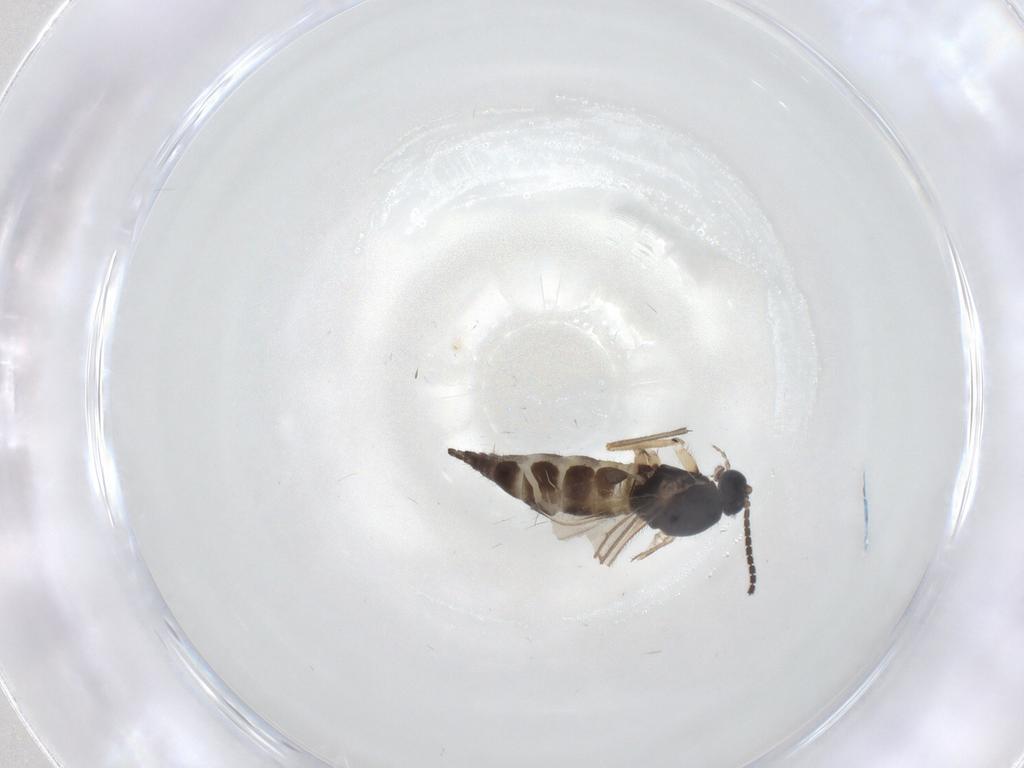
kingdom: Animalia
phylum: Arthropoda
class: Insecta
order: Diptera
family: Sciaridae
